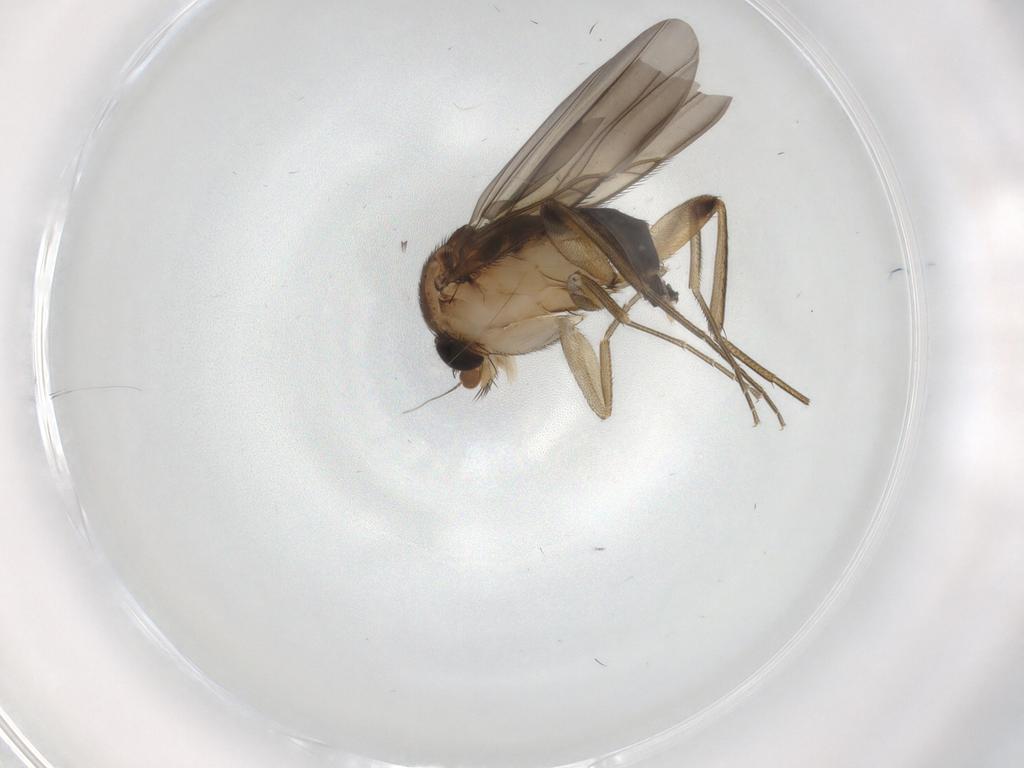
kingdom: Animalia
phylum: Arthropoda
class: Insecta
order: Diptera
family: Phoridae
